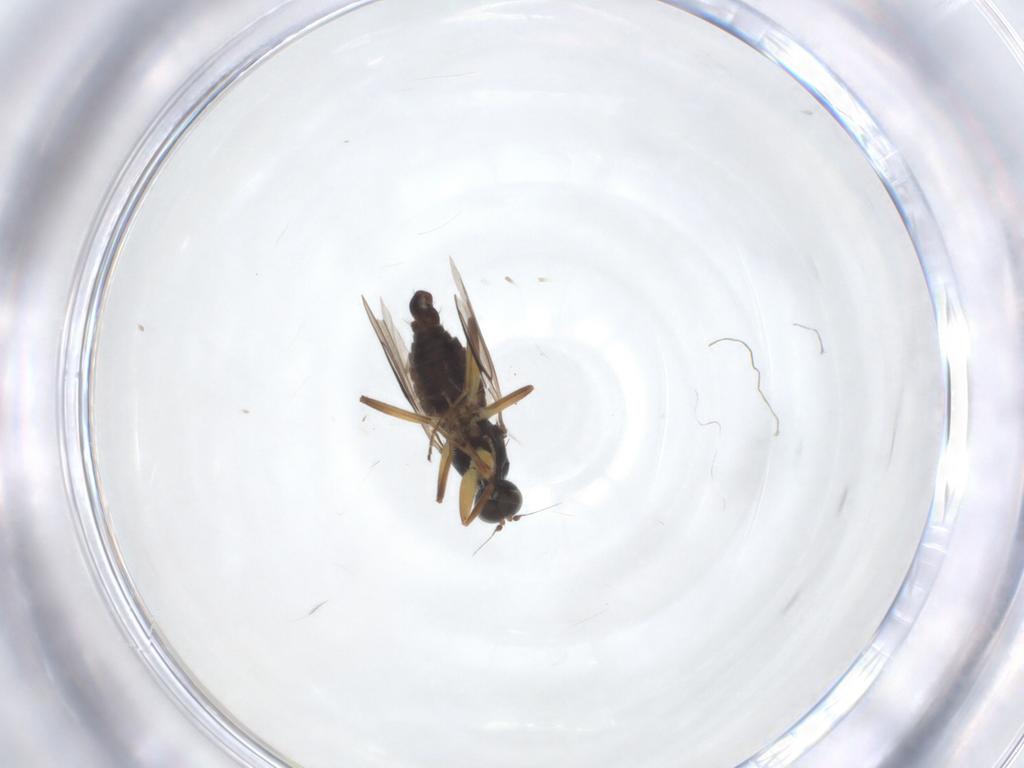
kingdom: Animalia
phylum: Arthropoda
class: Insecta
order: Diptera
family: Hybotidae
